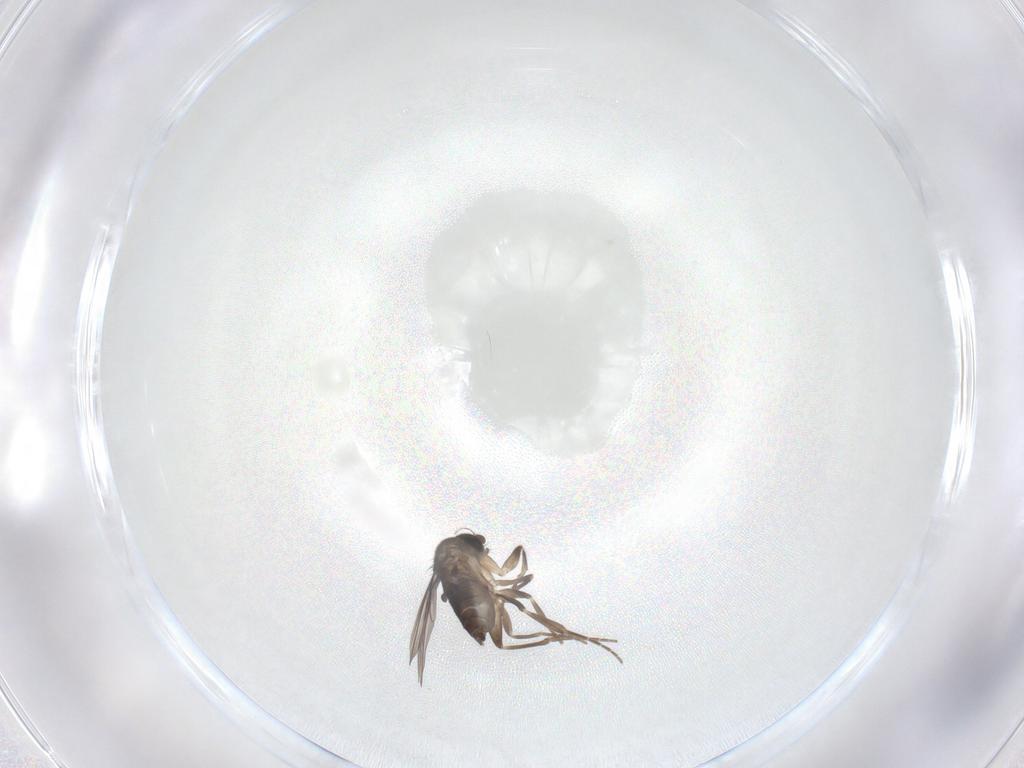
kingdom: Animalia
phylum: Arthropoda
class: Insecta
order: Diptera
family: Phoridae
